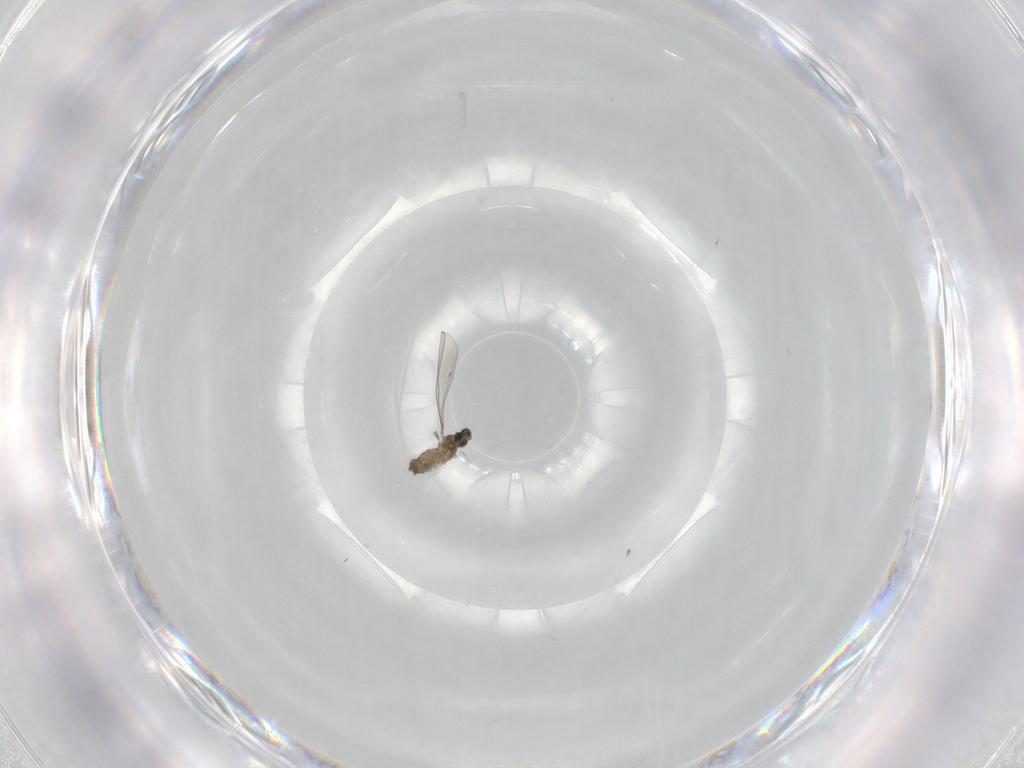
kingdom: Animalia
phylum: Arthropoda
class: Insecta
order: Diptera
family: Cecidomyiidae
